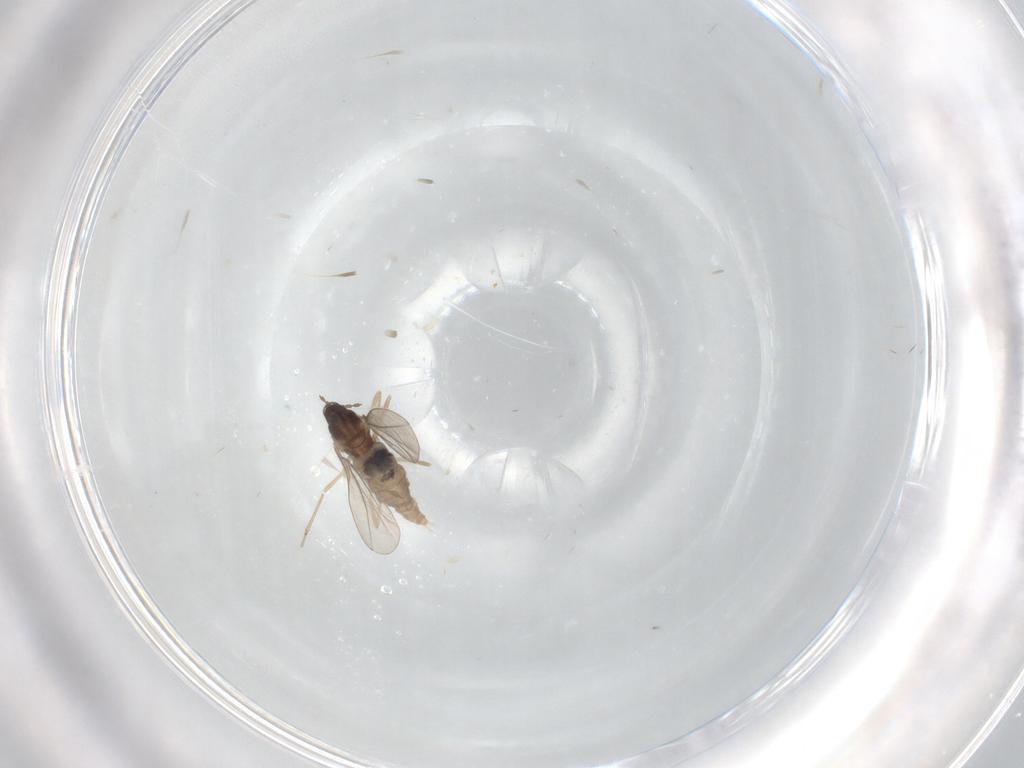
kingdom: Animalia
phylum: Arthropoda
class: Insecta
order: Diptera
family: Cecidomyiidae
